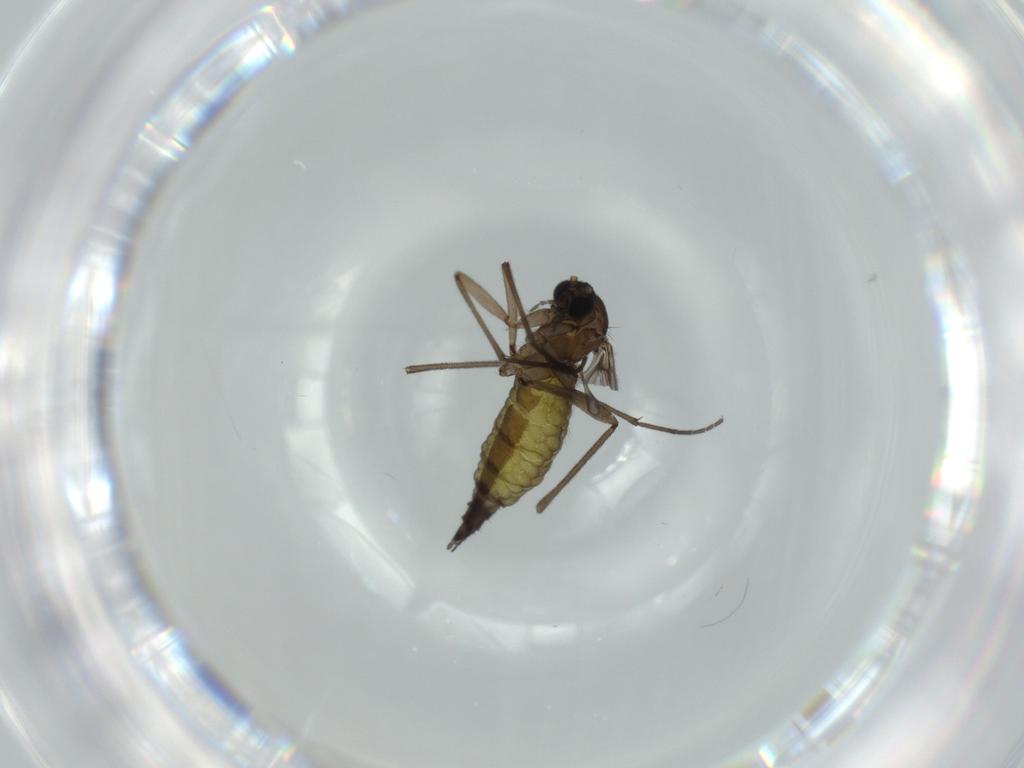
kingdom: Animalia
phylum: Arthropoda
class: Insecta
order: Diptera
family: Sciaridae
